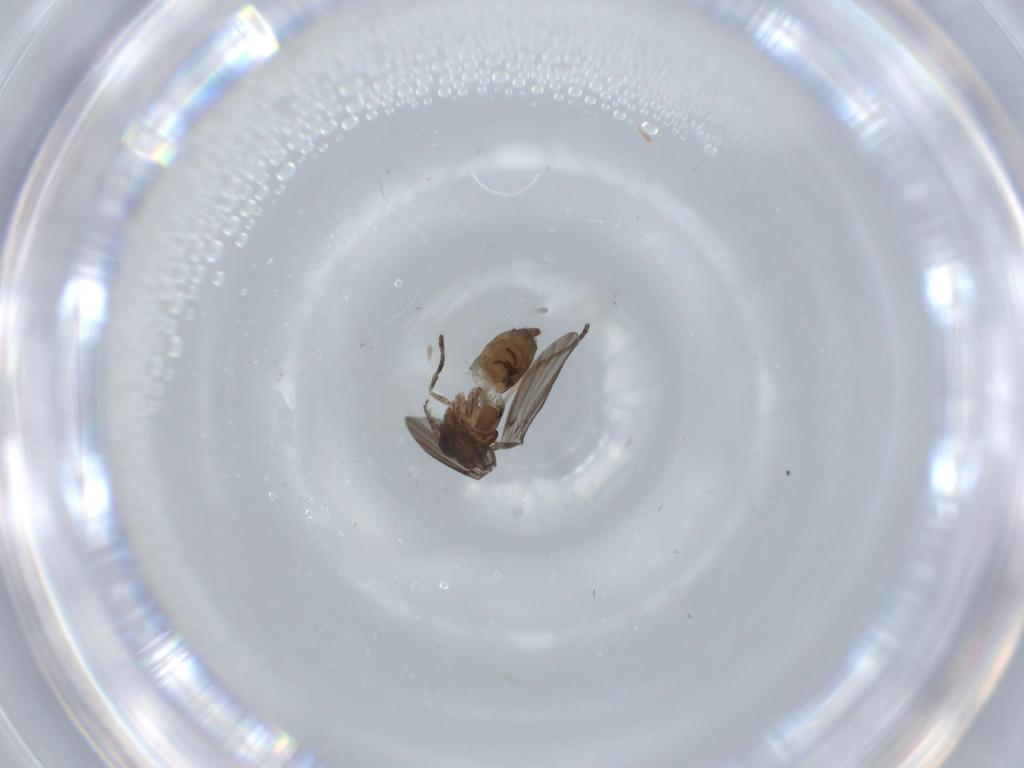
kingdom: Animalia
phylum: Arthropoda
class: Insecta
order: Diptera
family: Psychodidae
